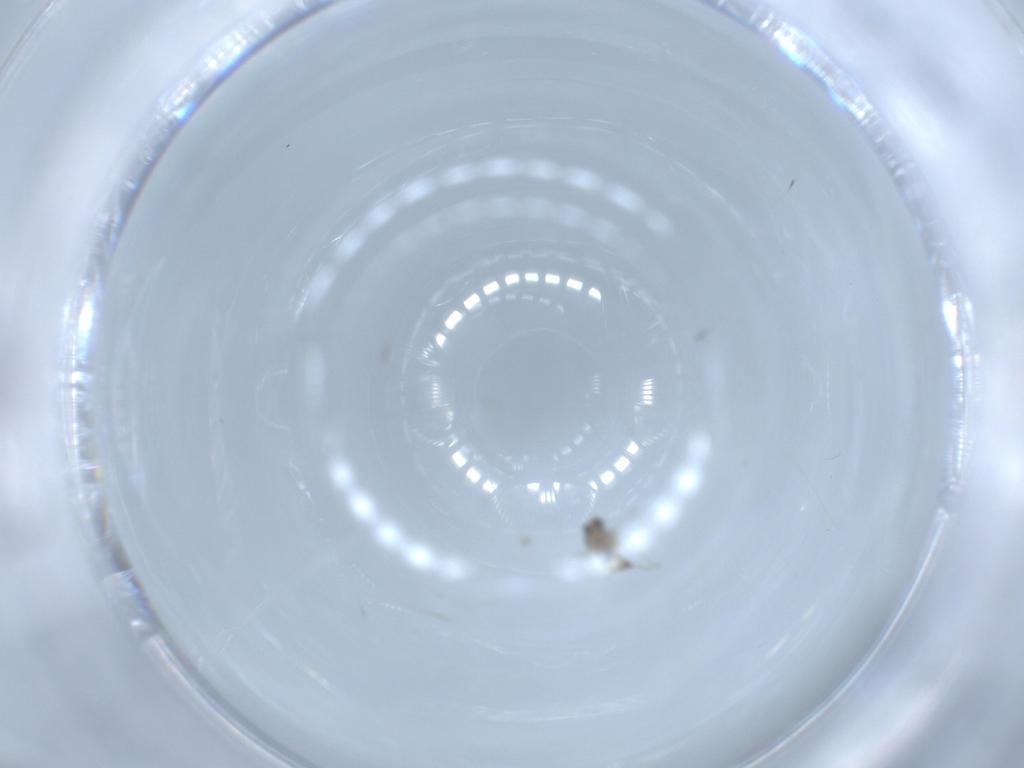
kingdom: Animalia
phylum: Arthropoda
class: Insecta
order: Diptera
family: Cecidomyiidae
